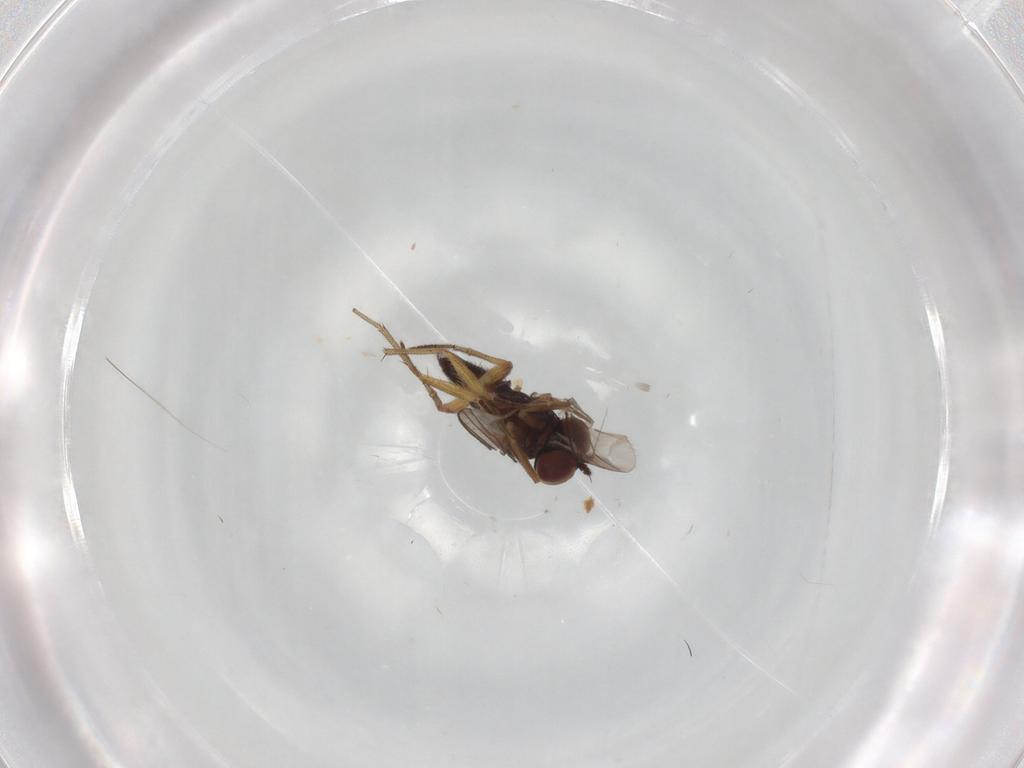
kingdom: Animalia
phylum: Arthropoda
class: Insecta
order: Diptera
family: Dolichopodidae
